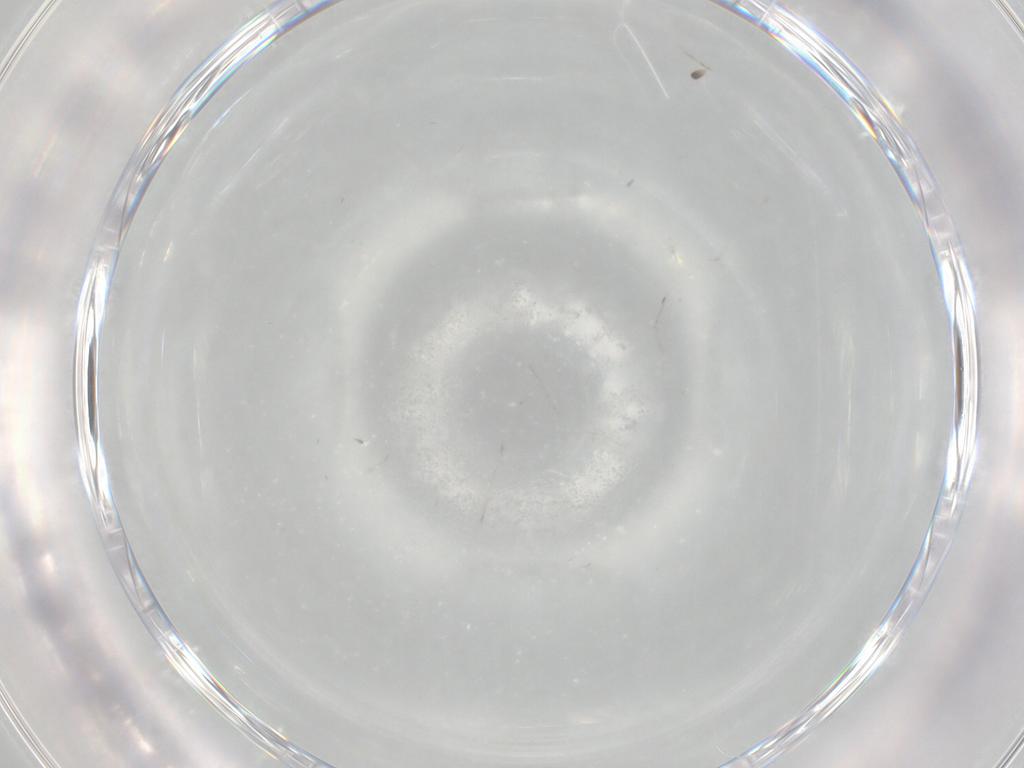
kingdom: Animalia
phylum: Arthropoda
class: Insecta
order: Diptera
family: Cecidomyiidae
